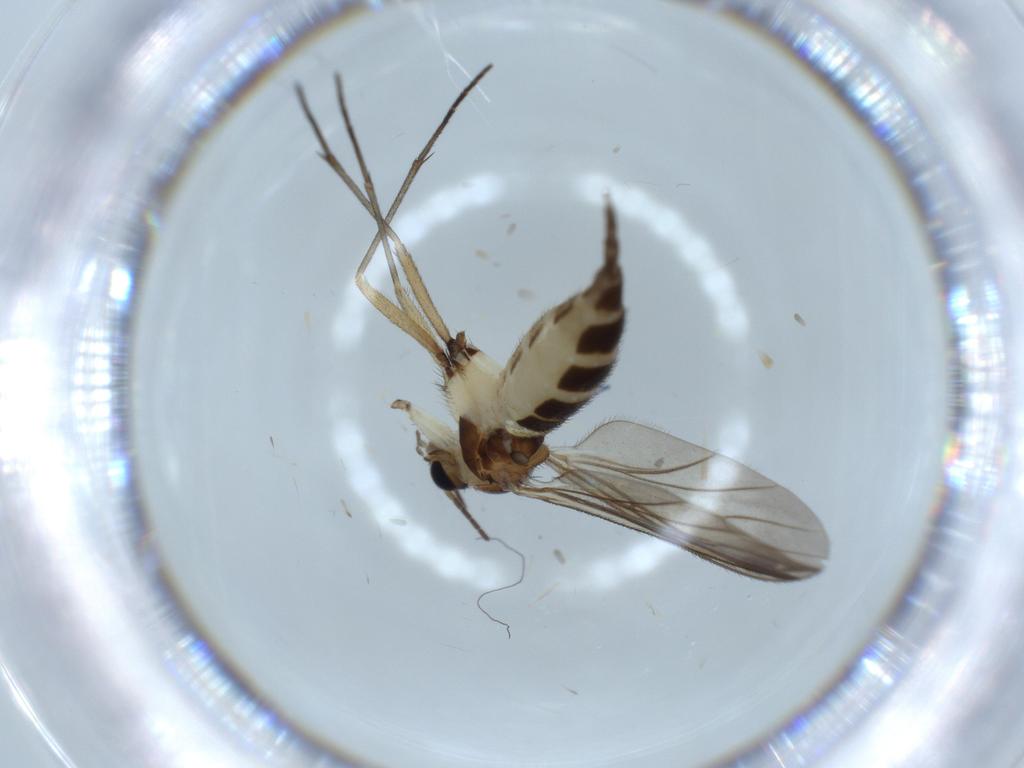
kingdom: Animalia
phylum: Arthropoda
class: Insecta
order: Diptera
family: Sciaridae
